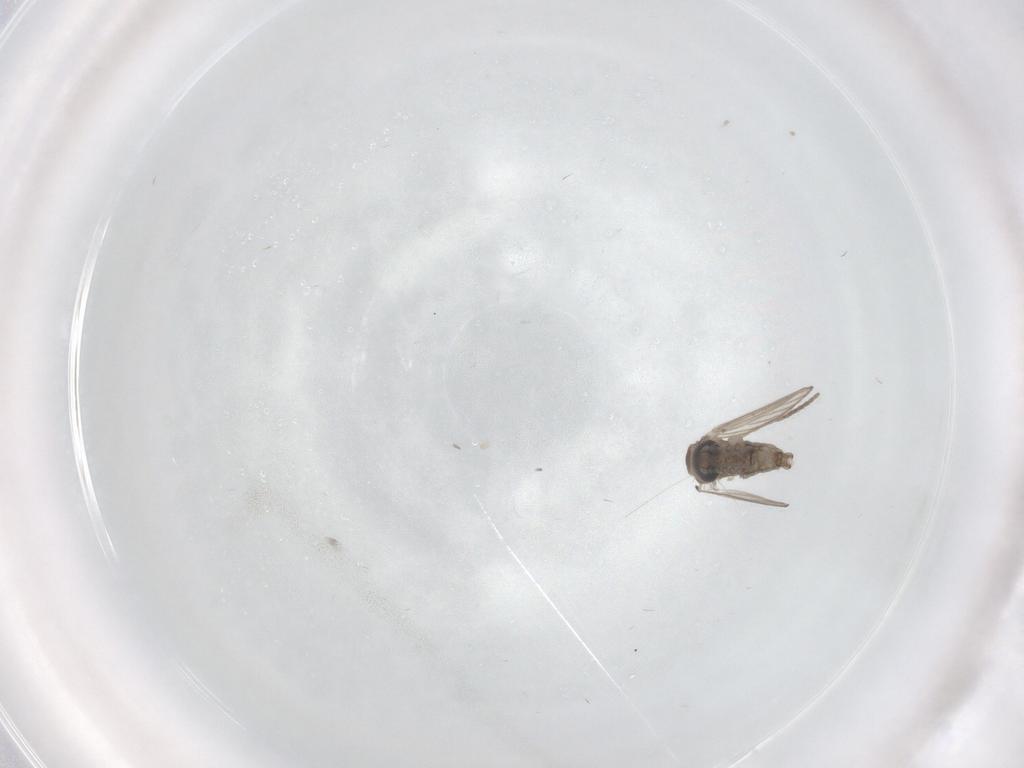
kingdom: Animalia
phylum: Arthropoda
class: Insecta
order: Diptera
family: Psychodidae
